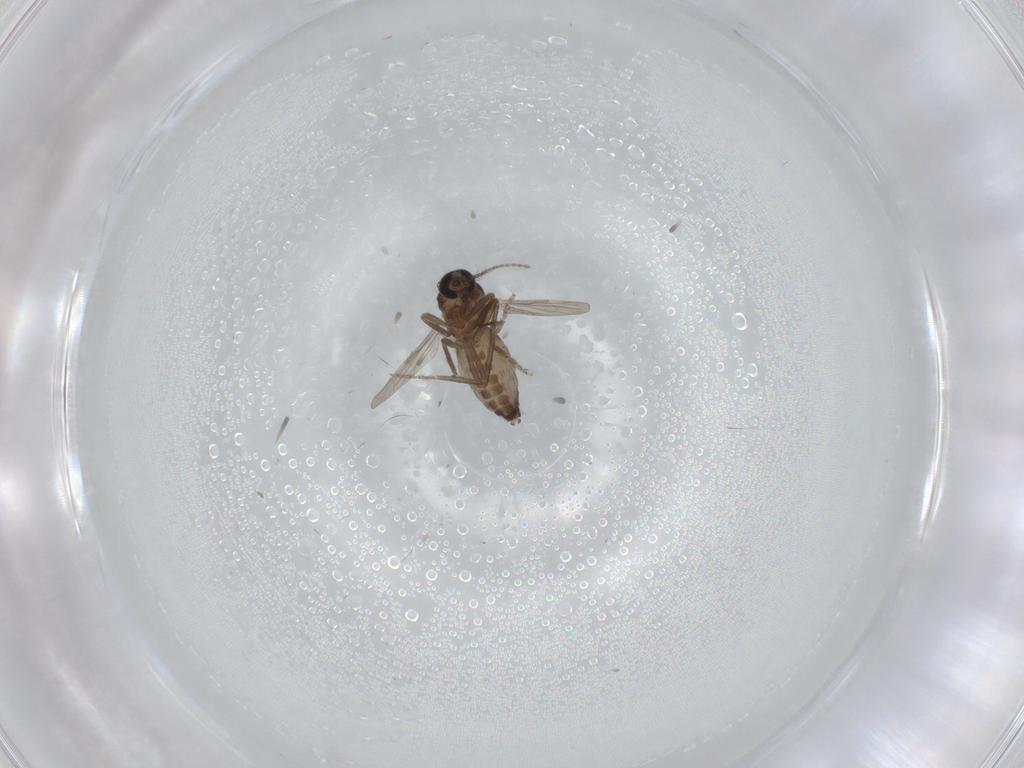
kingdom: Animalia
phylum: Arthropoda
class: Insecta
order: Diptera
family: Ceratopogonidae
